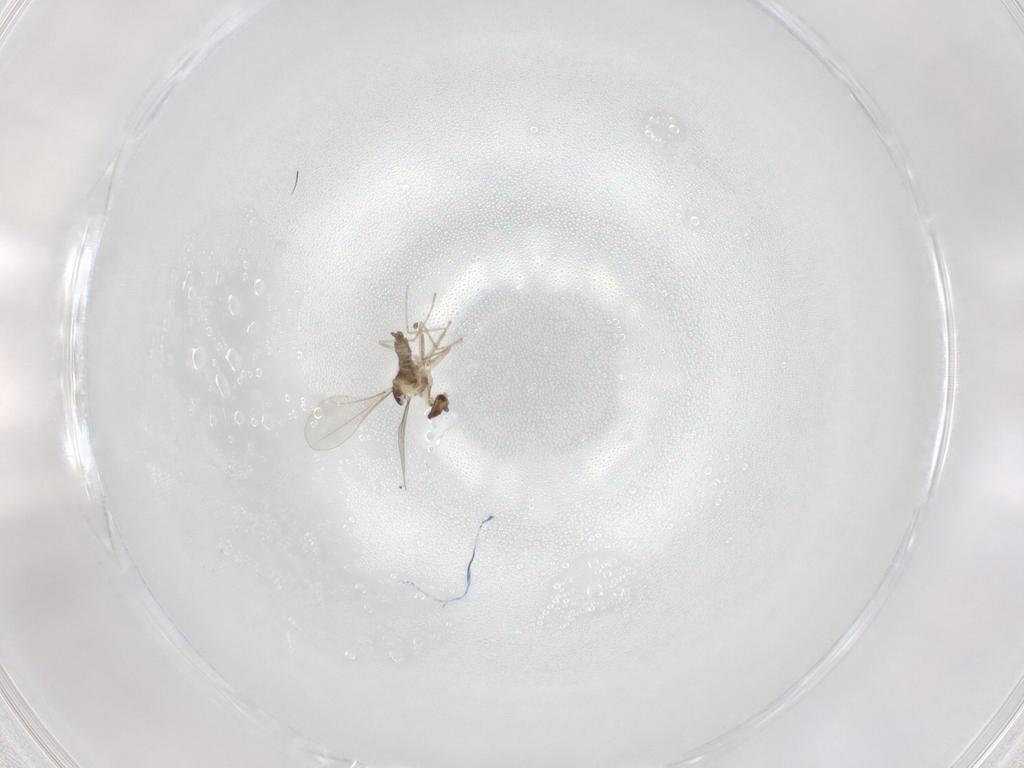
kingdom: Animalia
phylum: Arthropoda
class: Insecta
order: Diptera
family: Cecidomyiidae
